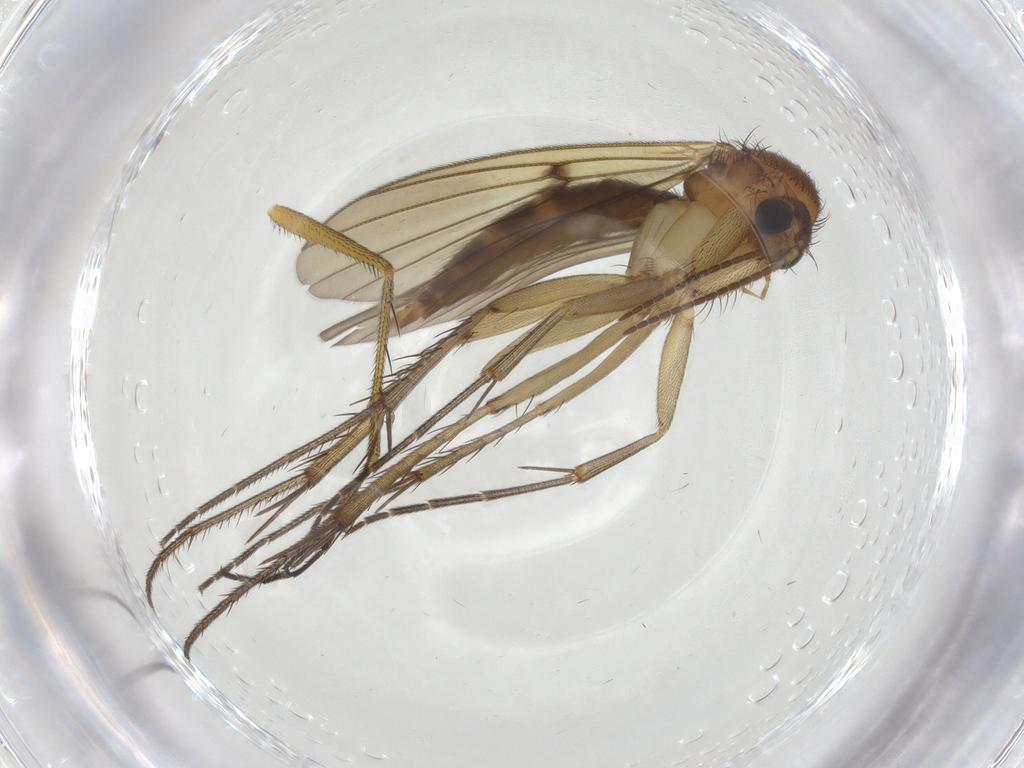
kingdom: Animalia
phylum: Arthropoda
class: Insecta
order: Diptera
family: Mycetophilidae
